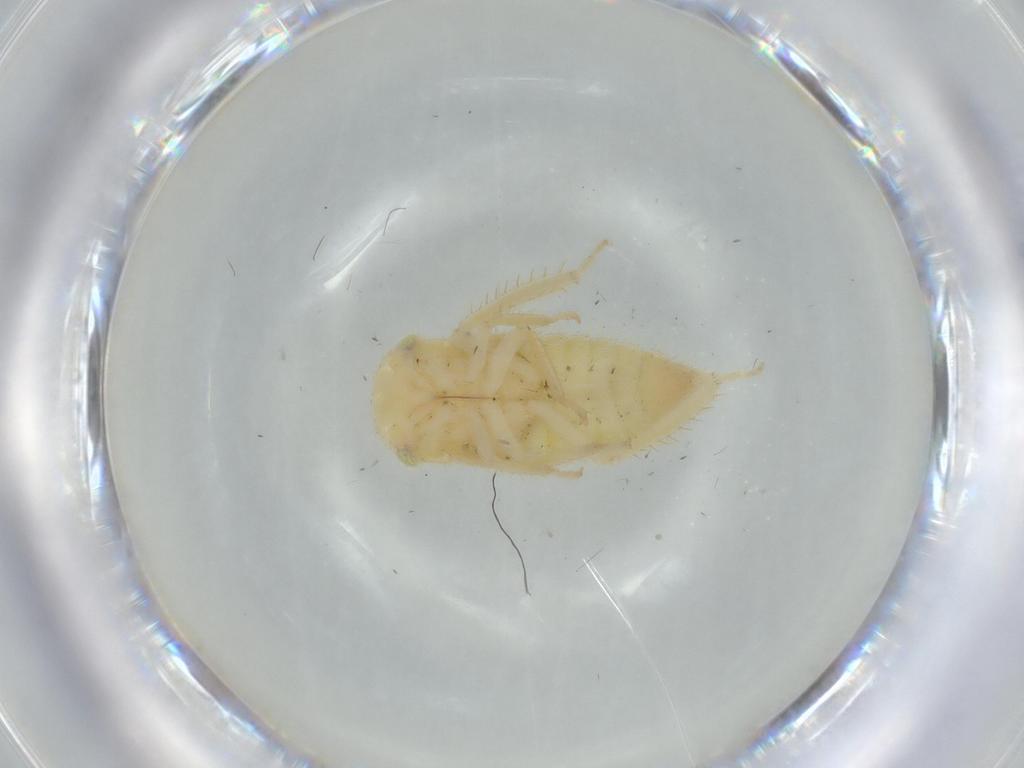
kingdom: Animalia
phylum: Arthropoda
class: Insecta
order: Hemiptera
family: Cicadellidae
